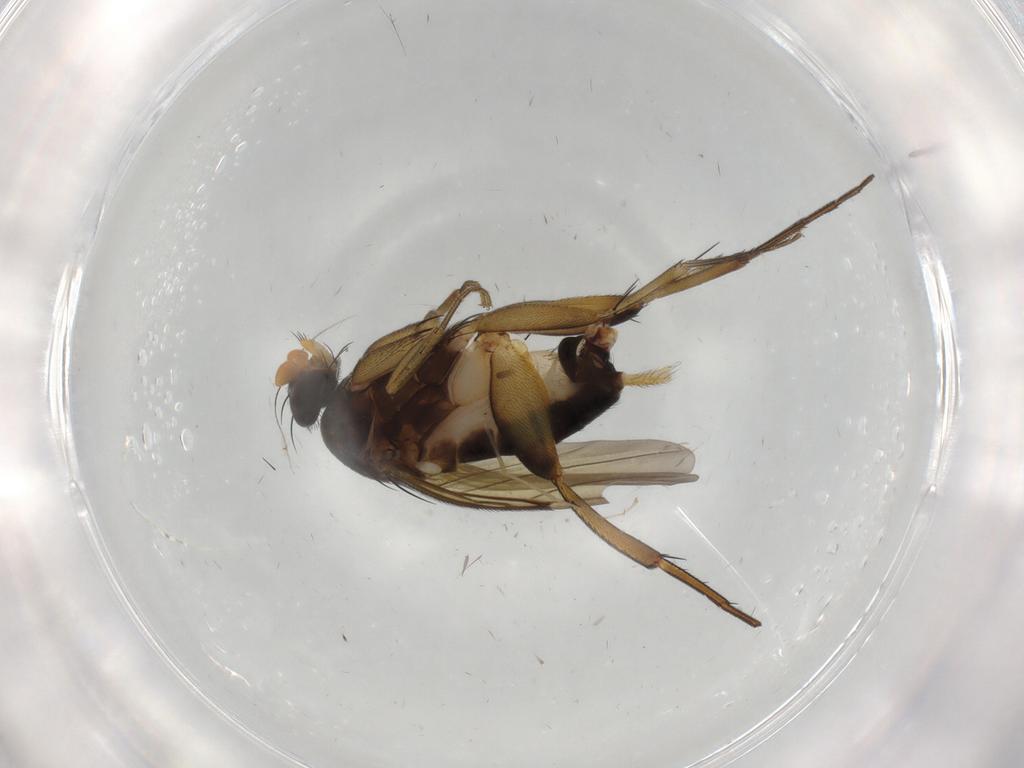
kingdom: Animalia
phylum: Arthropoda
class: Insecta
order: Diptera
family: Phoridae
